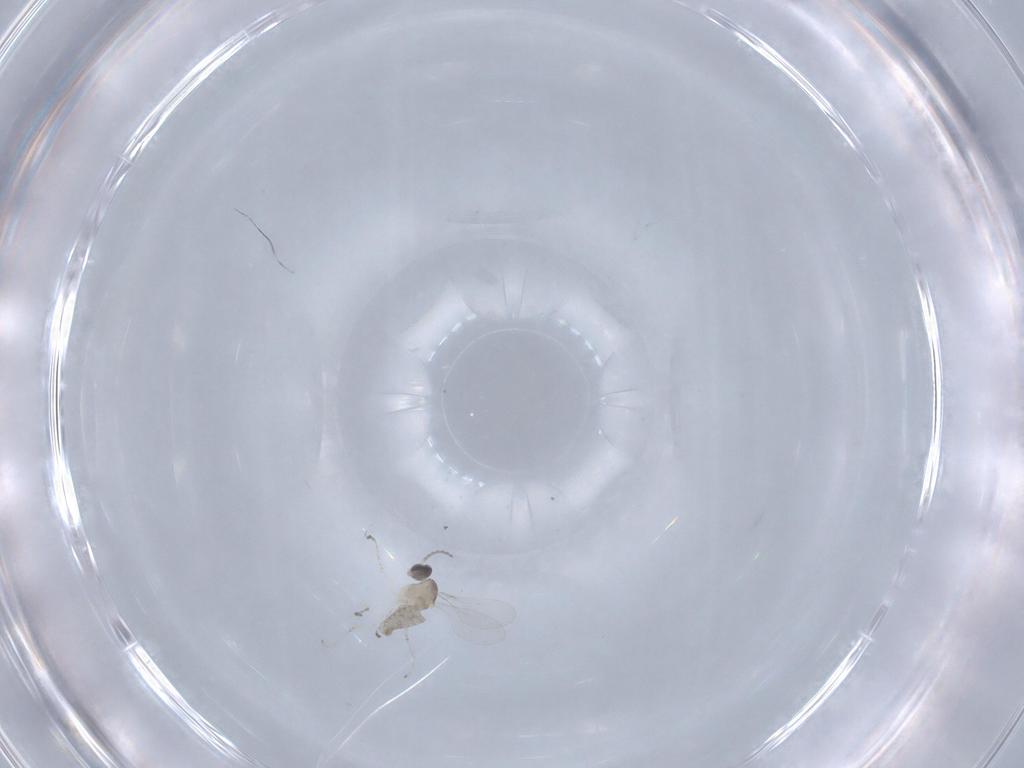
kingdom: Animalia
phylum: Arthropoda
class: Insecta
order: Diptera
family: Cecidomyiidae
